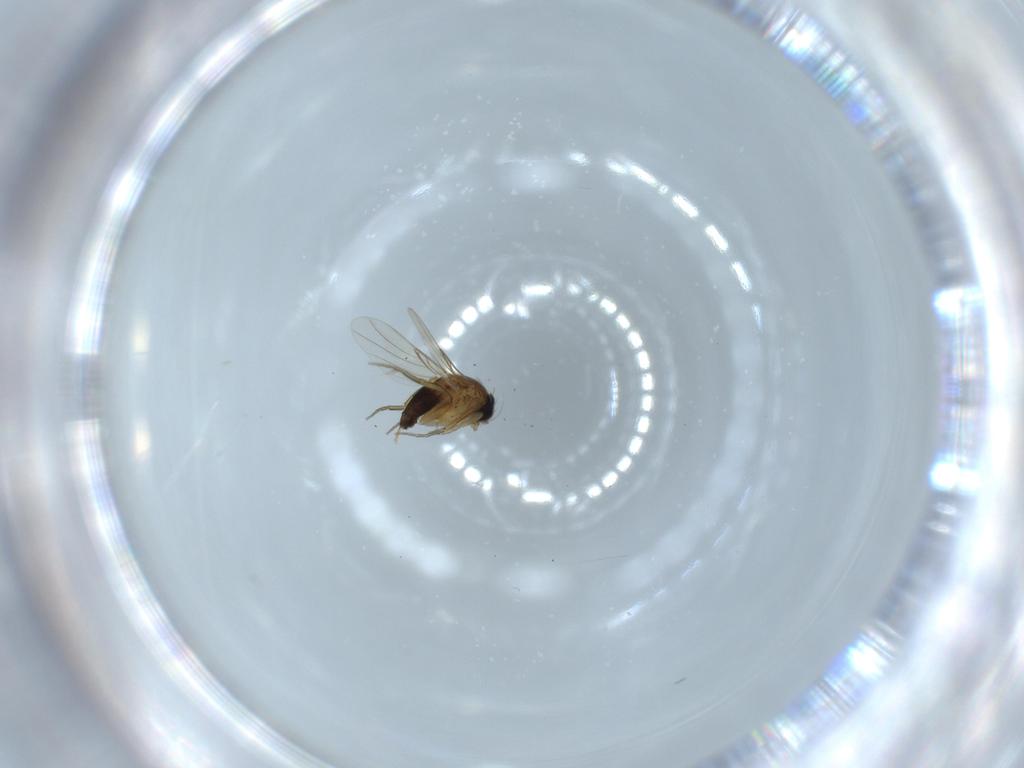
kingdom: Animalia
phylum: Arthropoda
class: Insecta
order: Diptera
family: Phoridae
